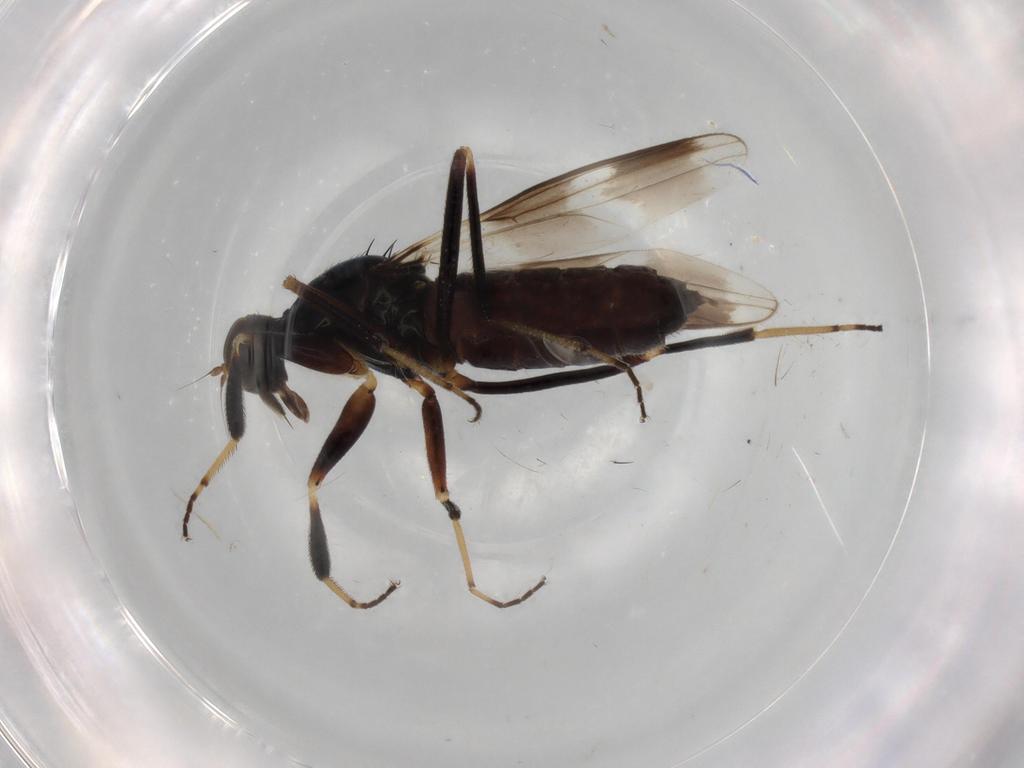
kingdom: Animalia
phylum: Arthropoda
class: Insecta
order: Diptera
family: Hybotidae
